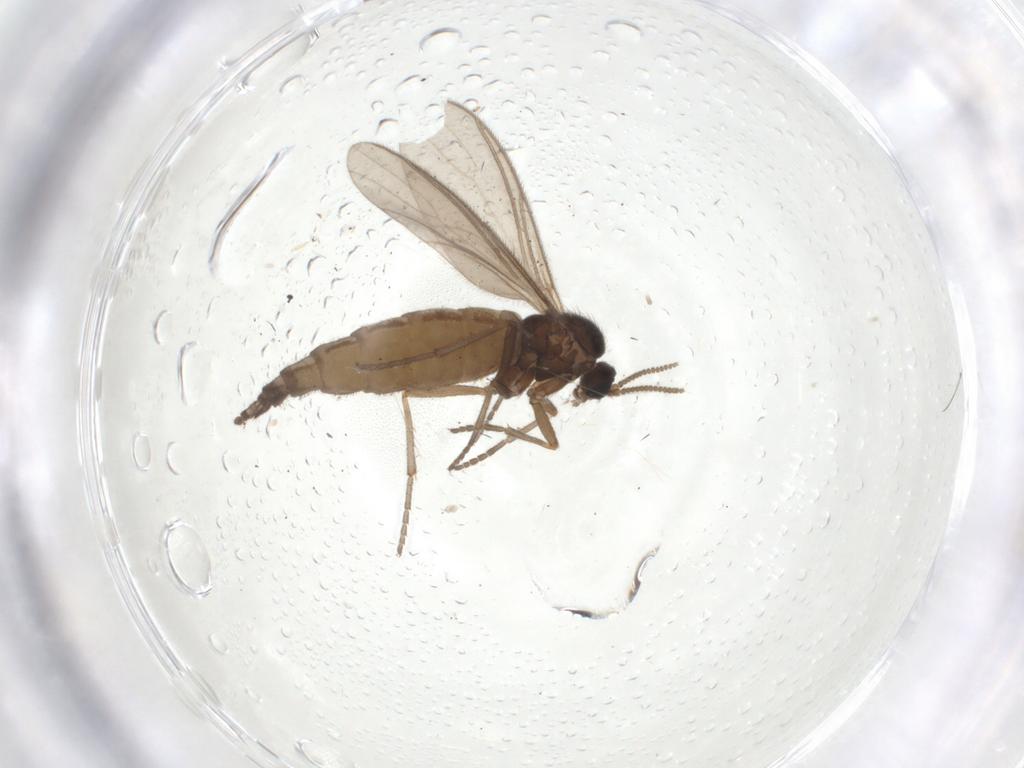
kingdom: Animalia
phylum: Arthropoda
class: Insecta
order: Diptera
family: Sciaridae
